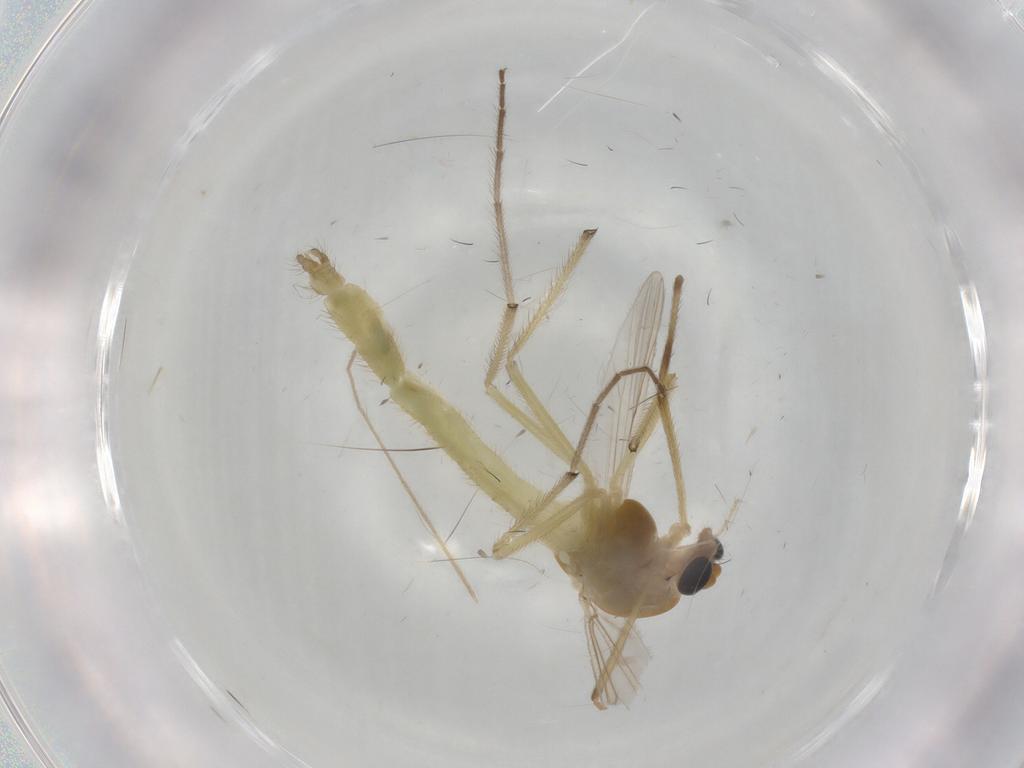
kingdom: Animalia
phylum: Arthropoda
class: Insecta
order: Diptera
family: Chironomidae
